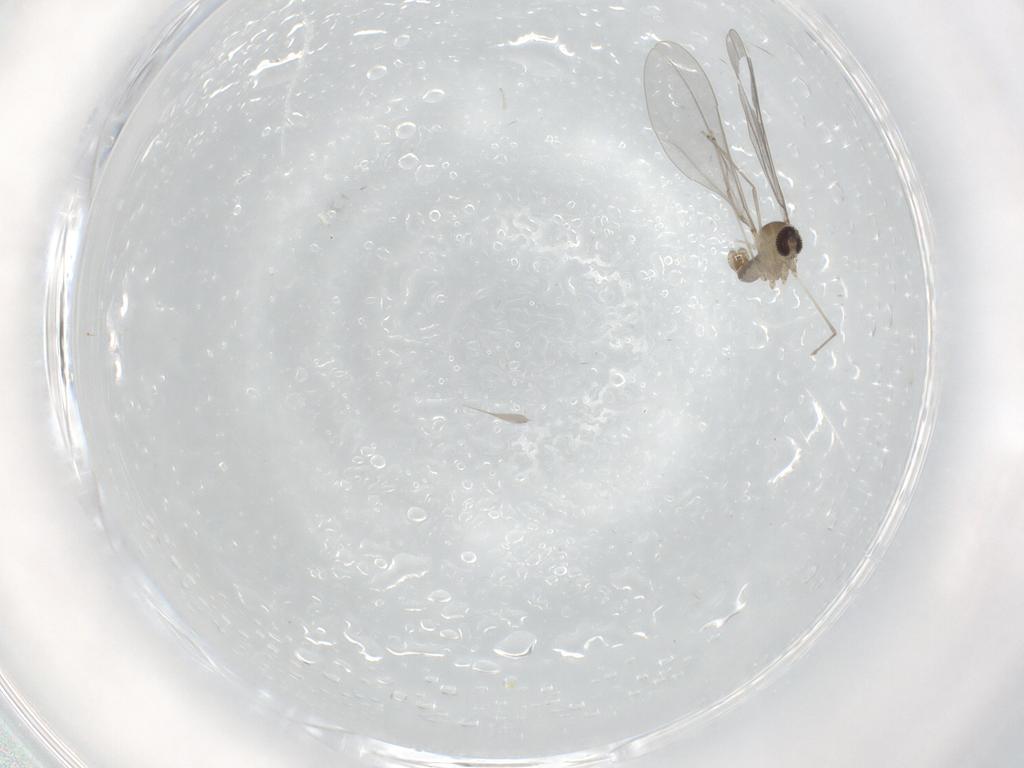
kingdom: Animalia
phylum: Arthropoda
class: Insecta
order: Diptera
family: Cecidomyiidae
